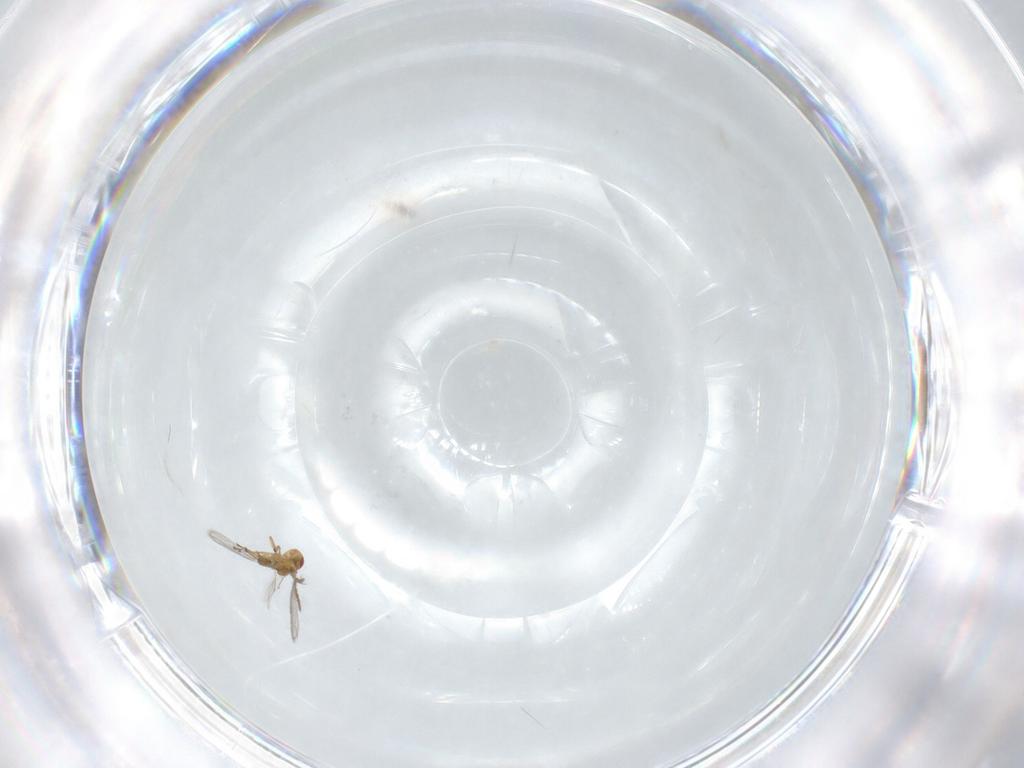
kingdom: Animalia
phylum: Arthropoda
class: Insecta
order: Hymenoptera
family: Eulophidae
